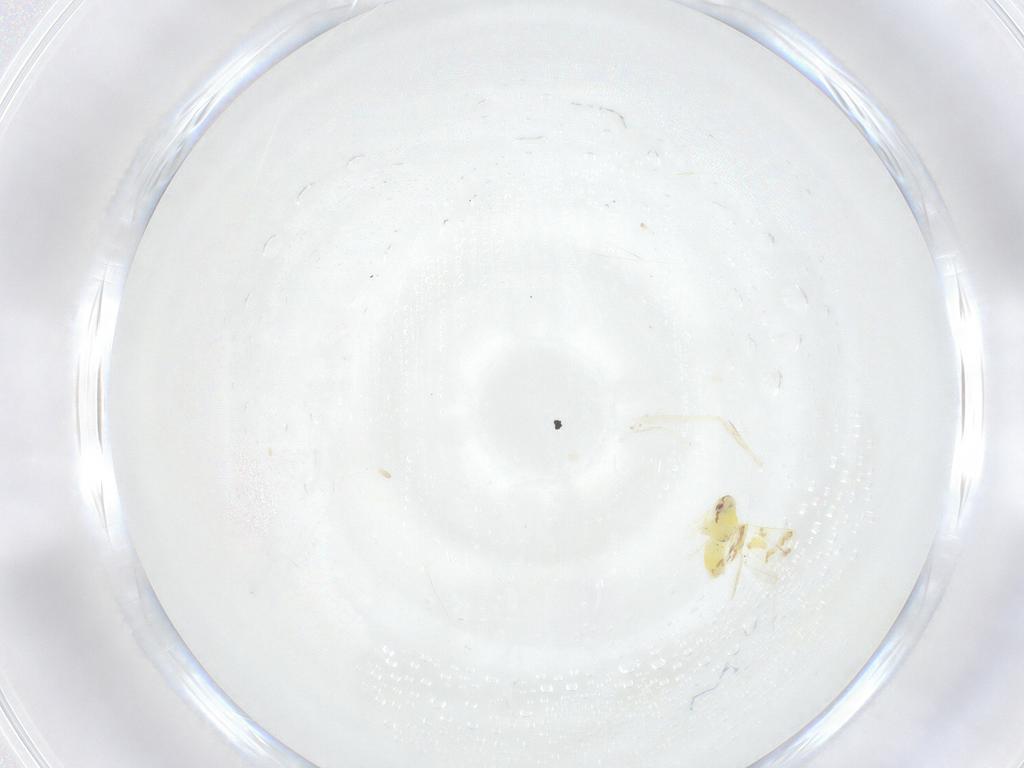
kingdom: Animalia
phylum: Arthropoda
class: Insecta
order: Hemiptera
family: Aleyrodidae
